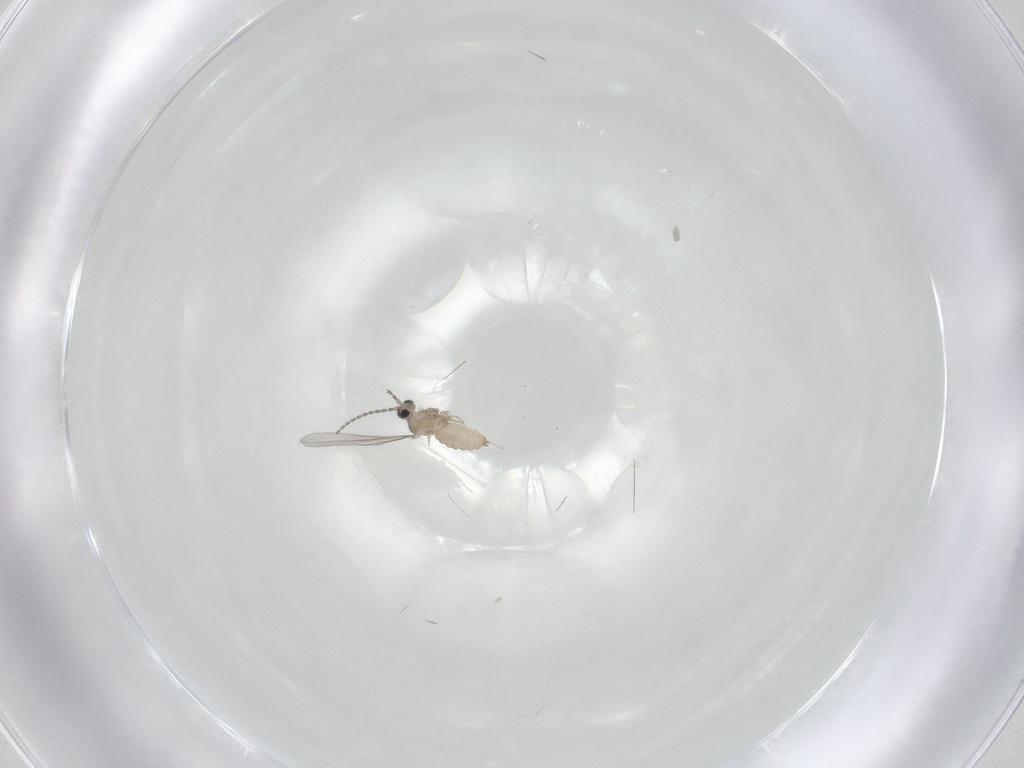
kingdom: Animalia
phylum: Arthropoda
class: Insecta
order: Diptera
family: Cecidomyiidae
